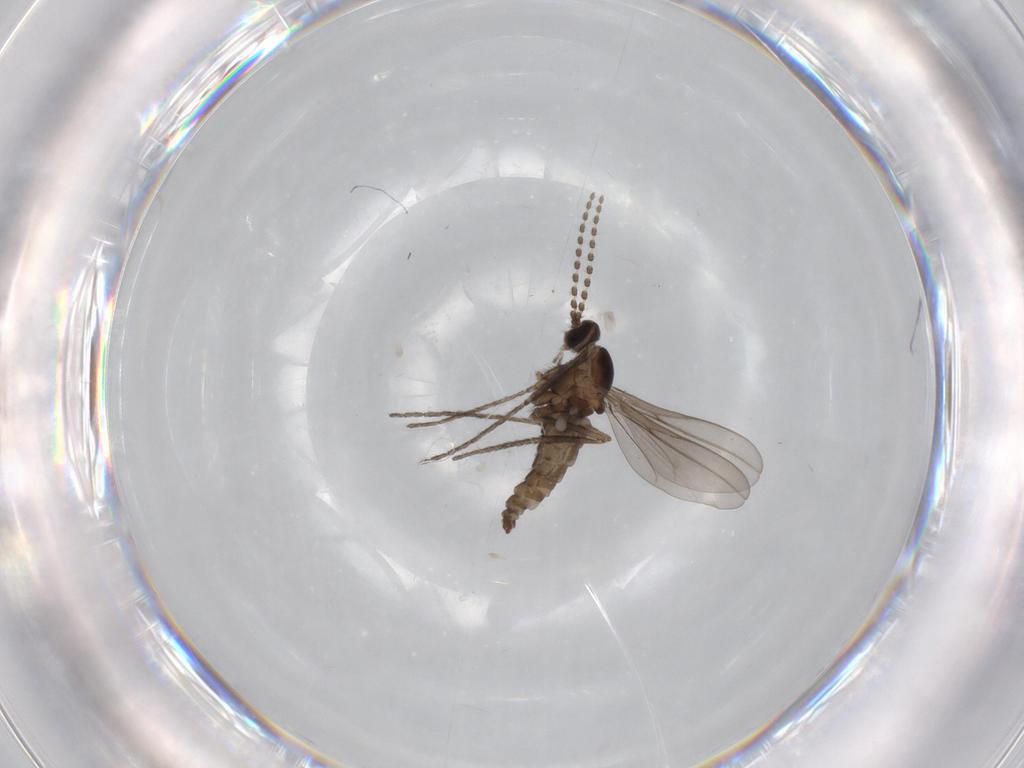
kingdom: Animalia
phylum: Arthropoda
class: Insecta
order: Diptera
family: Cecidomyiidae
